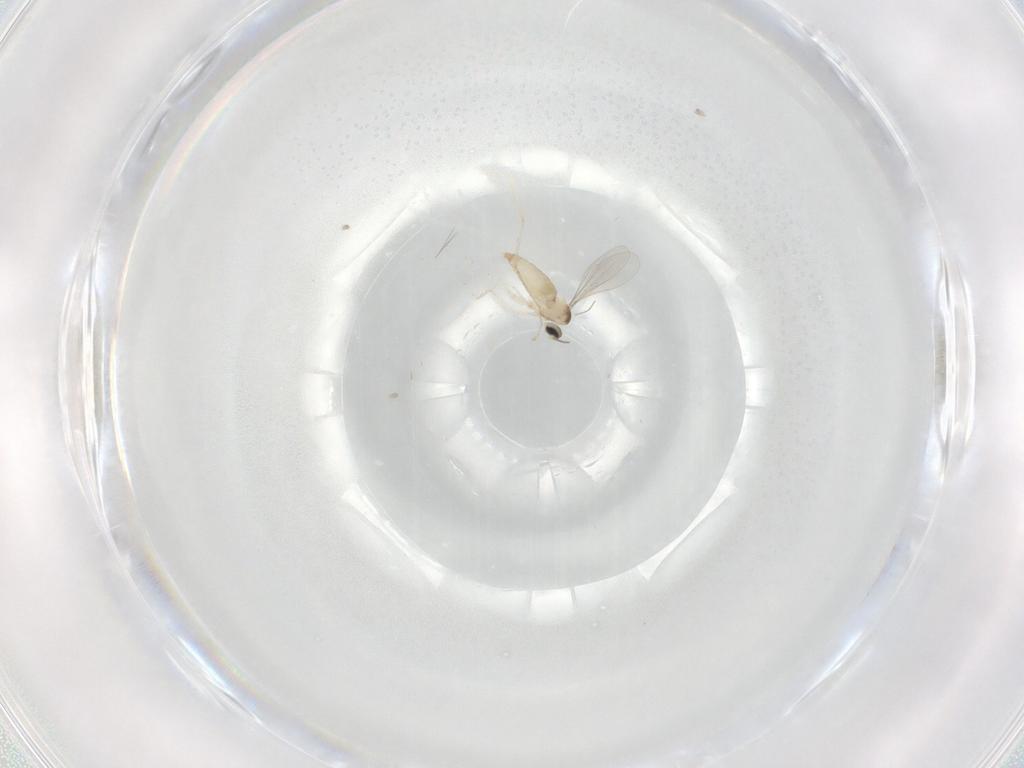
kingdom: Animalia
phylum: Arthropoda
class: Insecta
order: Diptera
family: Cecidomyiidae
